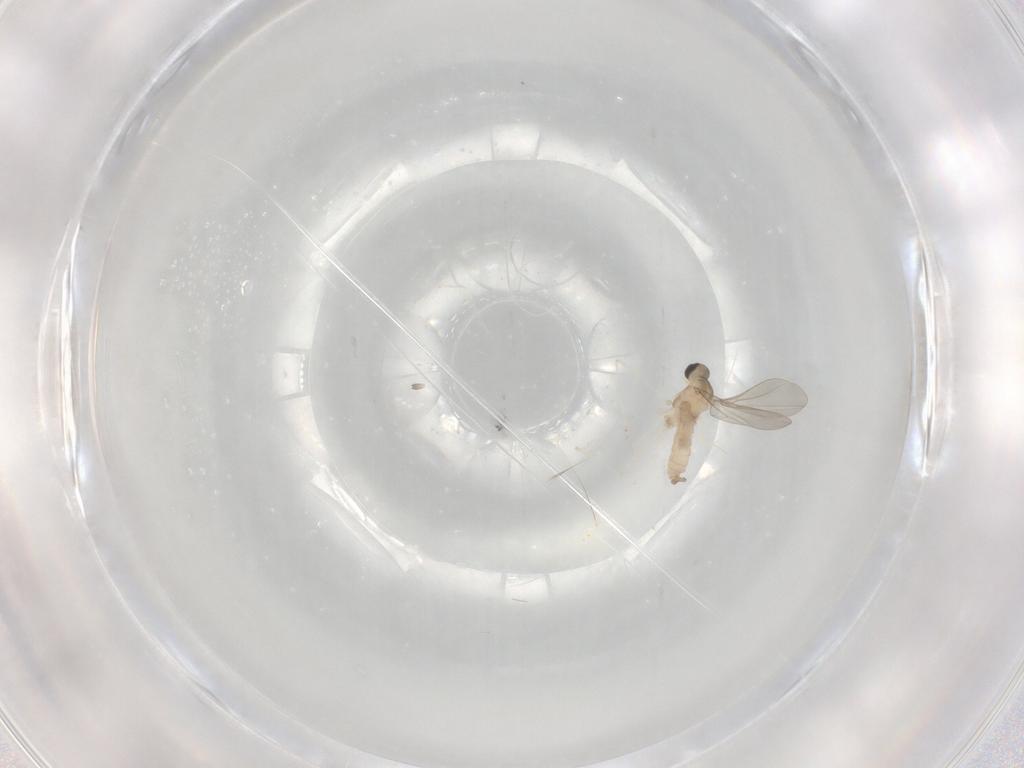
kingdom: Animalia
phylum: Arthropoda
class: Insecta
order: Diptera
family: Cecidomyiidae
